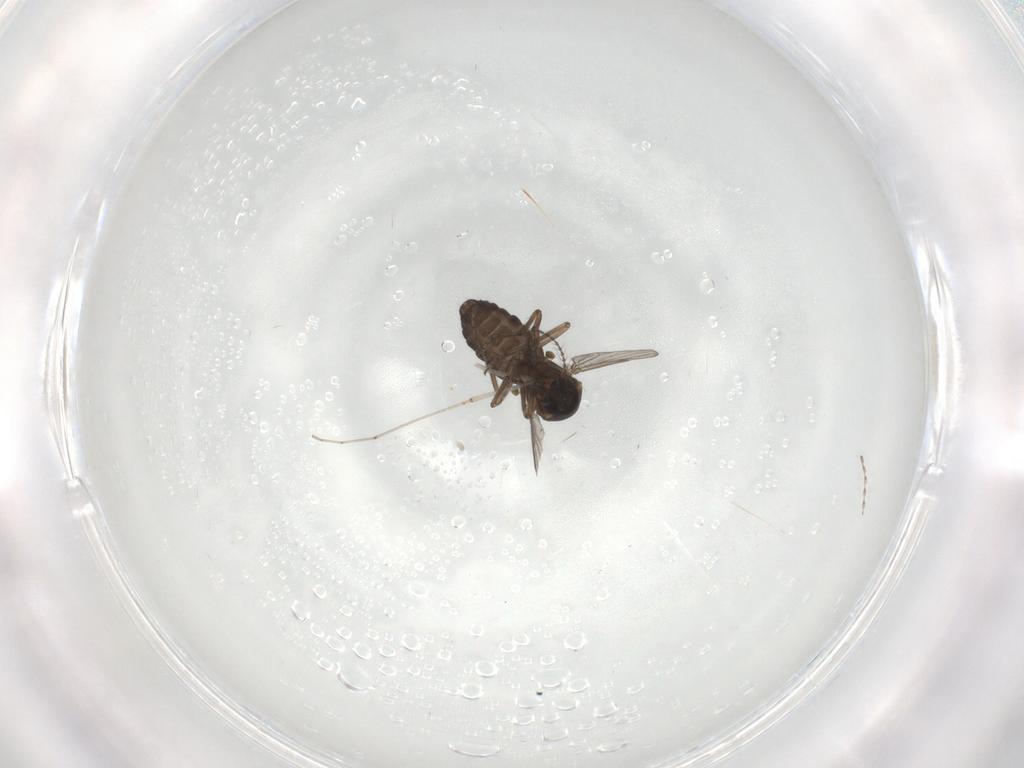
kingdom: Animalia
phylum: Arthropoda
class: Insecta
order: Diptera
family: Ceratopogonidae
